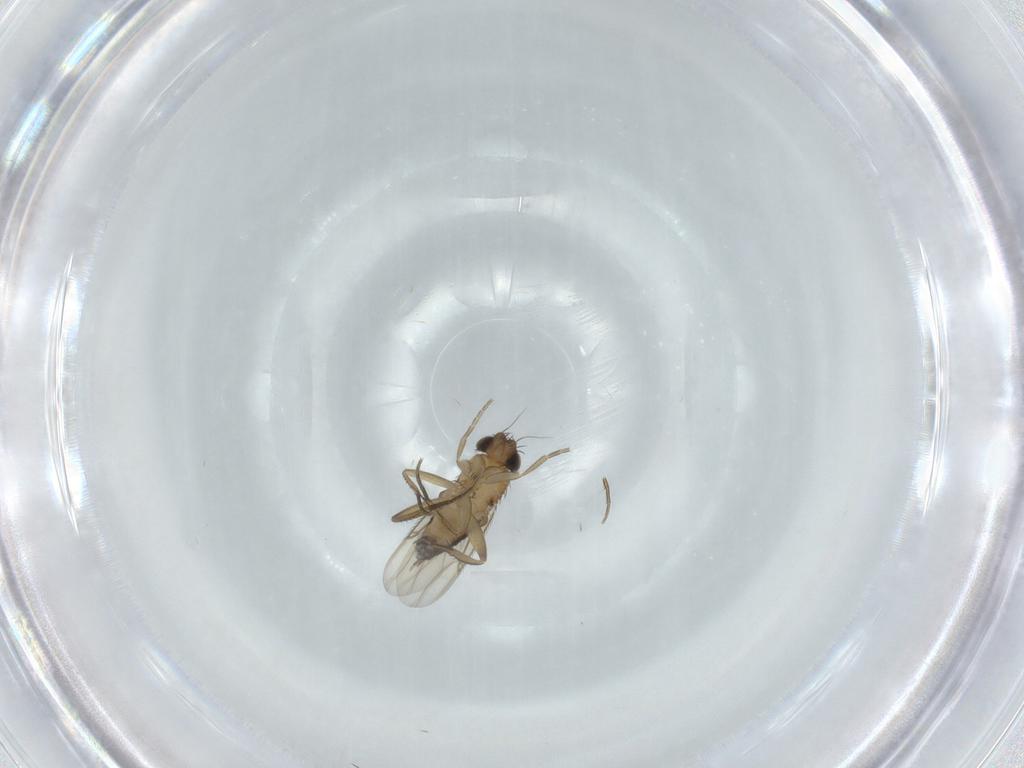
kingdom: Animalia
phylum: Arthropoda
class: Insecta
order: Diptera
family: Phoridae
